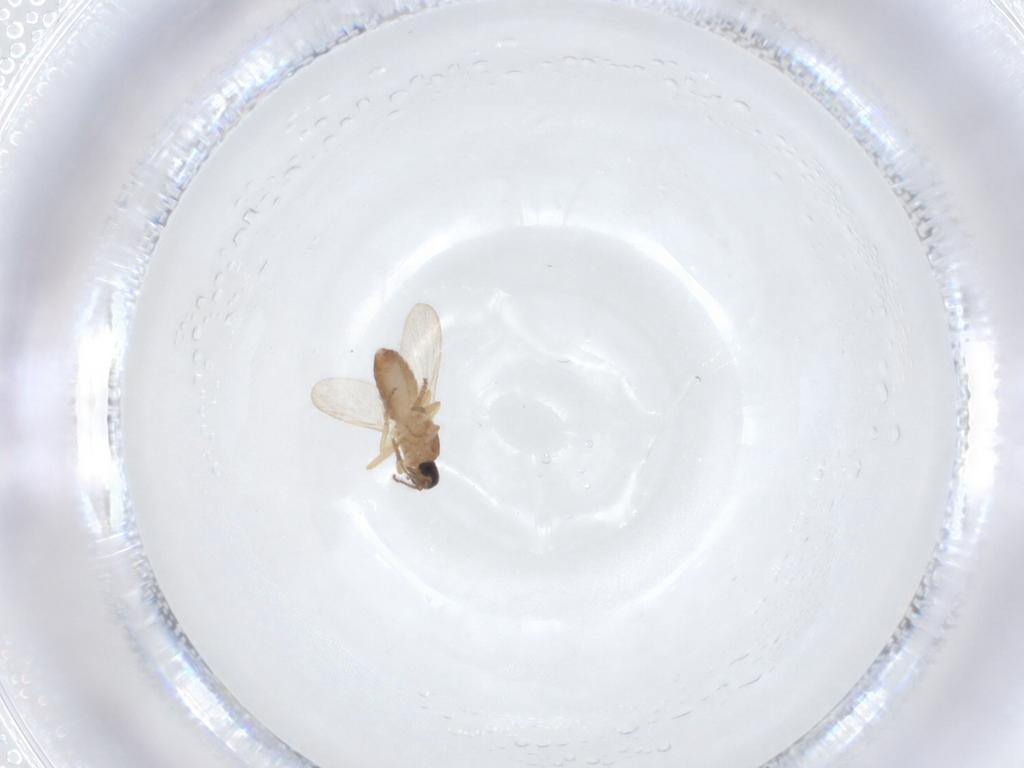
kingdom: Animalia
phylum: Arthropoda
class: Insecta
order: Diptera
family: Ceratopogonidae
